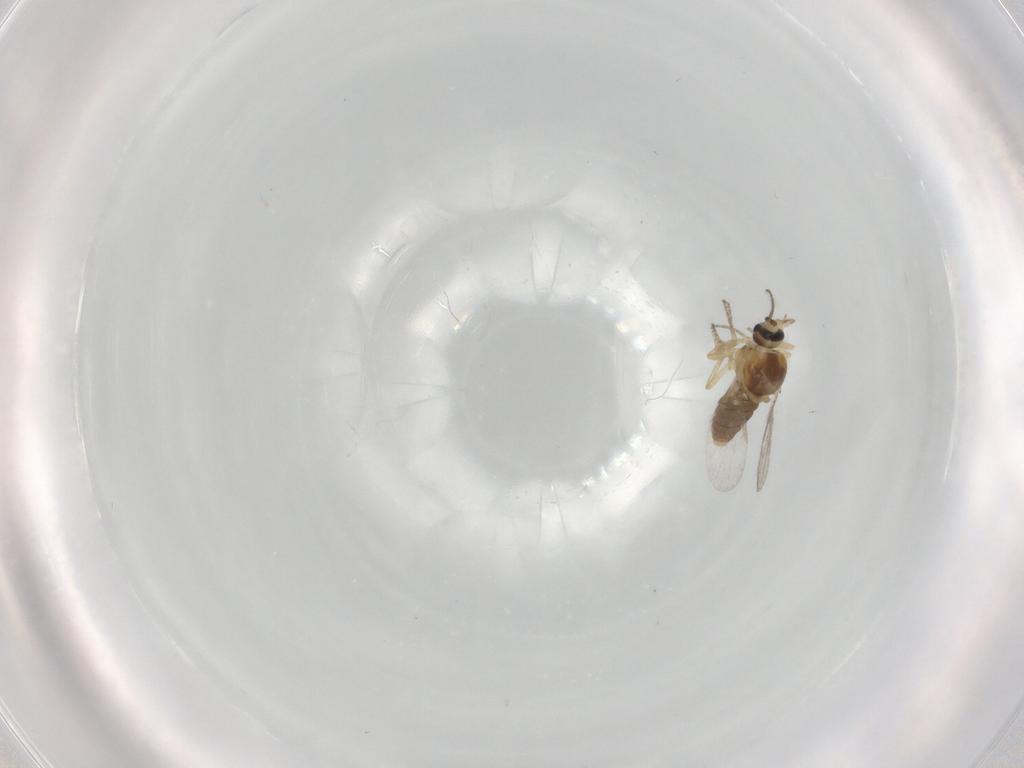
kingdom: Animalia
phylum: Arthropoda
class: Insecta
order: Diptera
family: Ceratopogonidae
